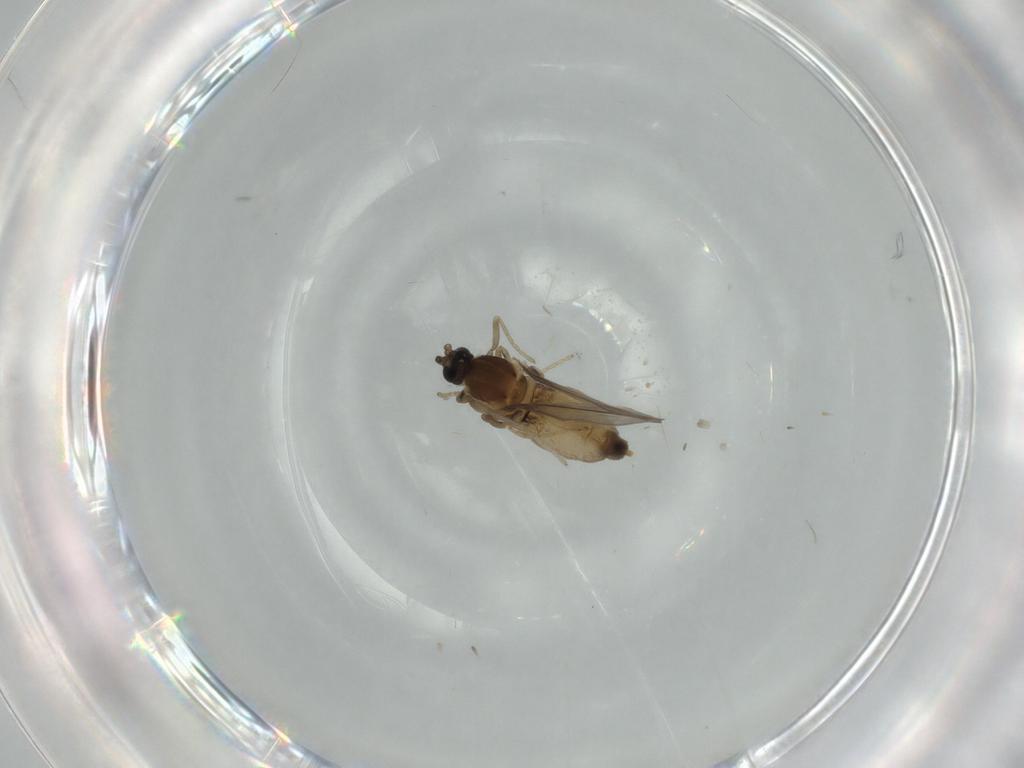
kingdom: Animalia
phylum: Arthropoda
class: Insecta
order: Diptera
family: Cecidomyiidae
